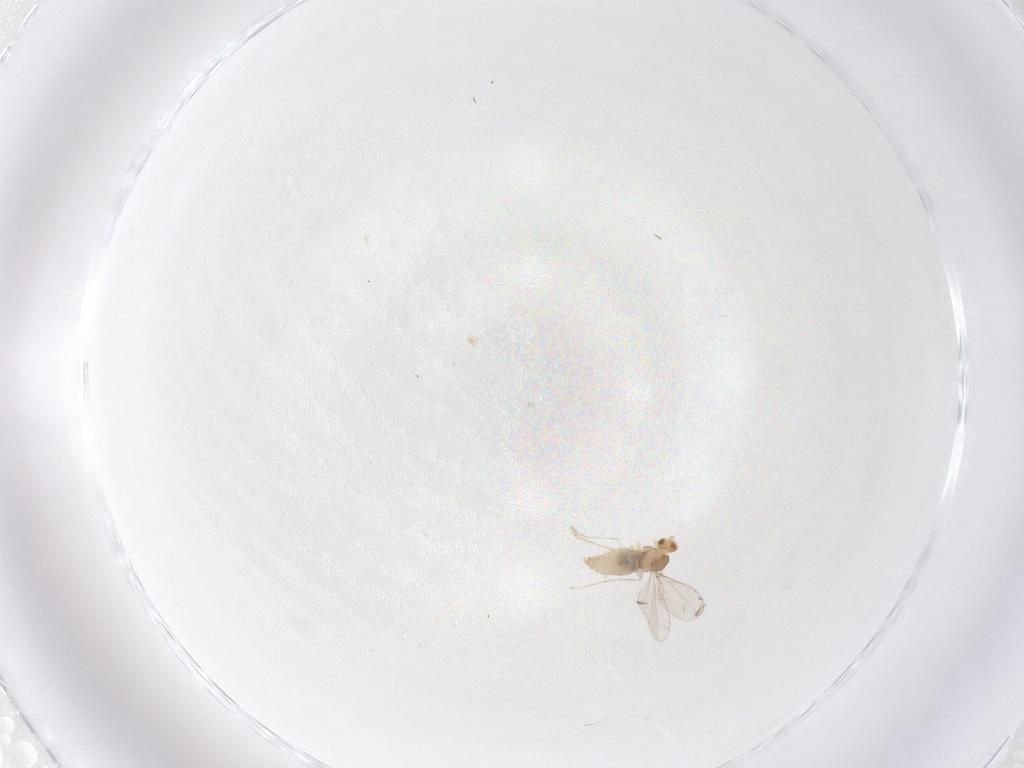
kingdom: Animalia
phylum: Arthropoda
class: Insecta
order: Diptera
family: Cecidomyiidae
